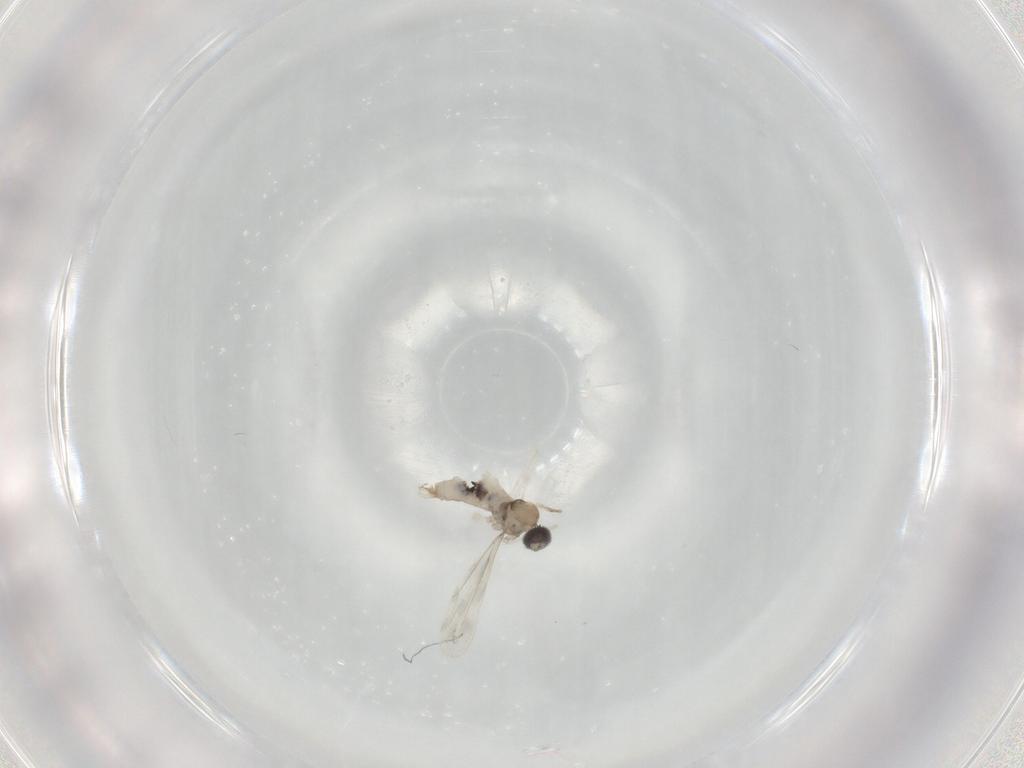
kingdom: Animalia
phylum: Arthropoda
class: Insecta
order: Diptera
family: Cecidomyiidae
